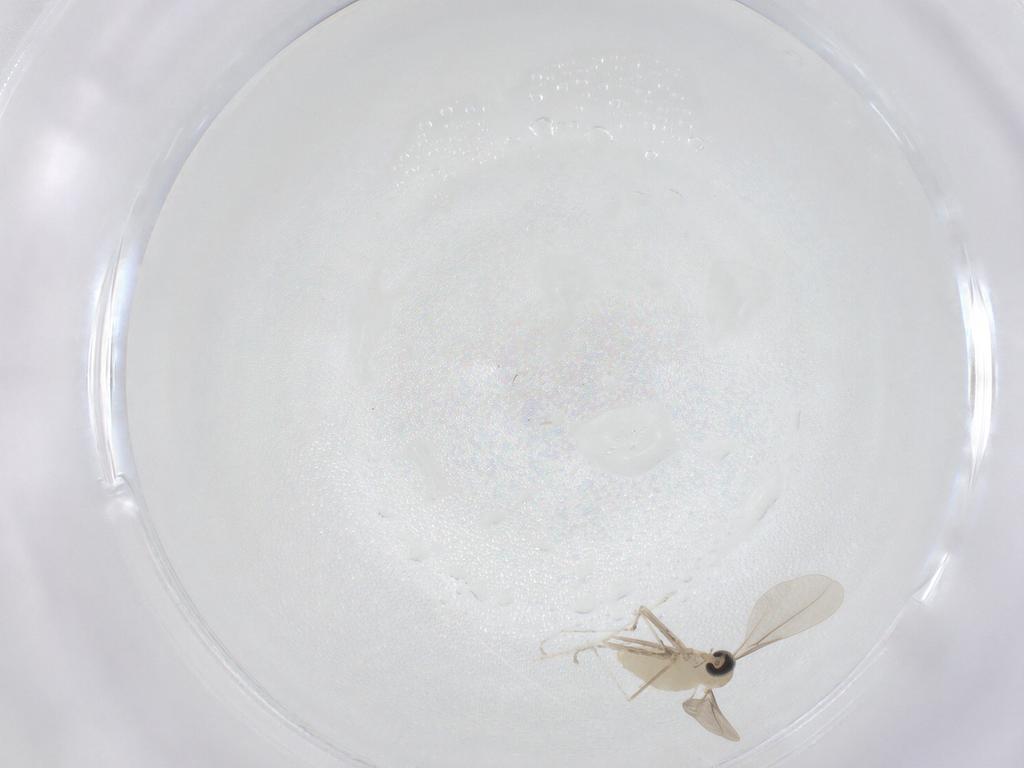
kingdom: Animalia
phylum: Arthropoda
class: Insecta
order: Diptera
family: Cecidomyiidae
